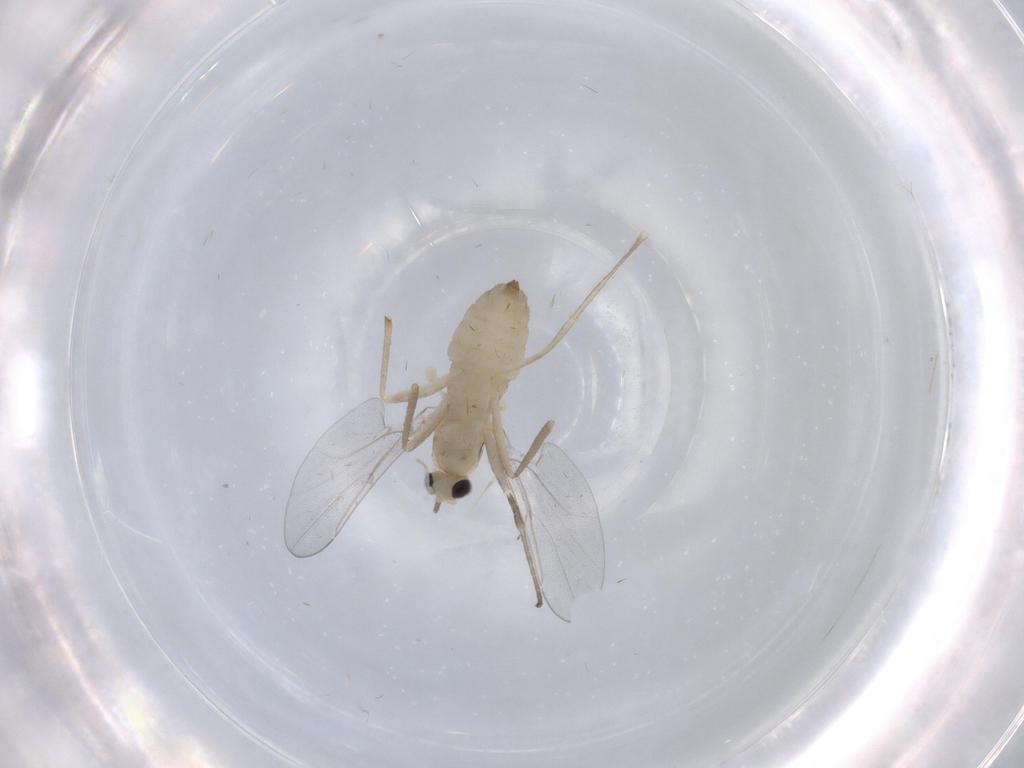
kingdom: Animalia
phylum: Arthropoda
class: Insecta
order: Diptera
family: Cecidomyiidae
